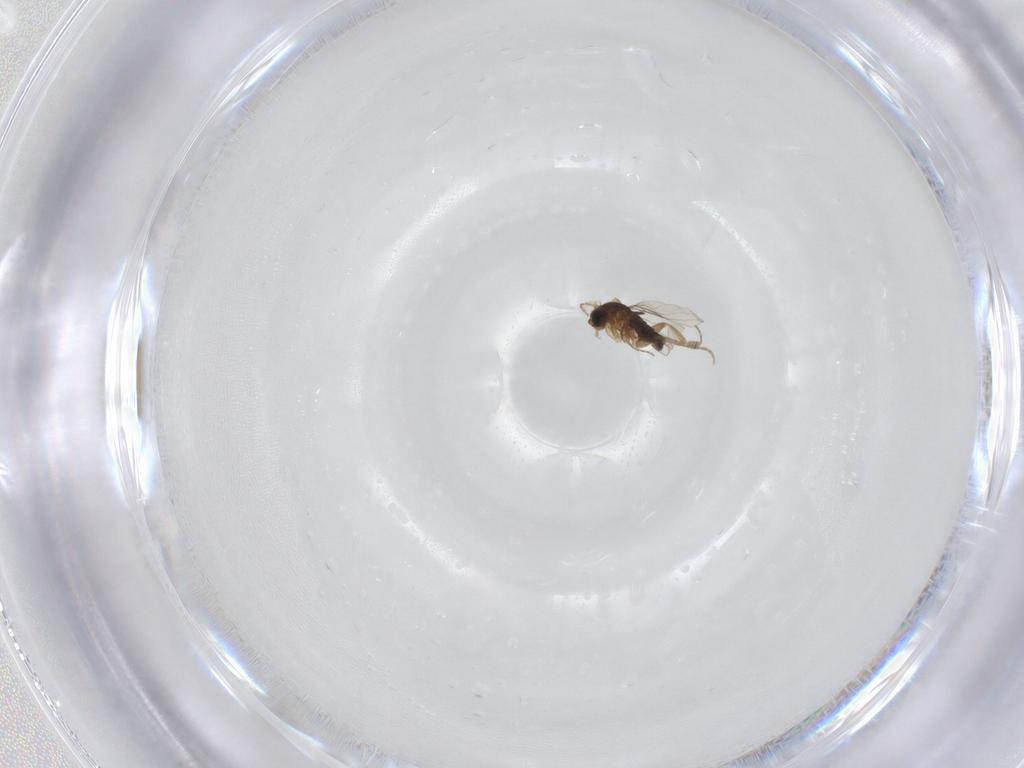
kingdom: Animalia
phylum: Arthropoda
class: Insecta
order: Diptera
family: Phoridae
